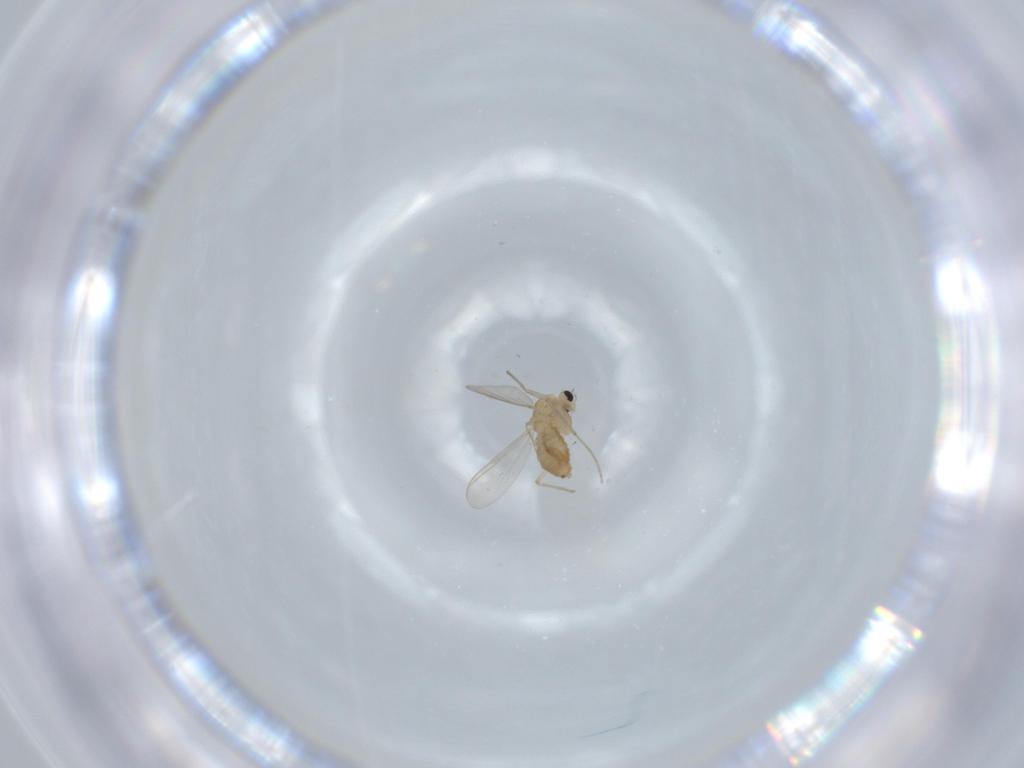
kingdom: Animalia
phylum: Arthropoda
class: Insecta
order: Diptera
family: Chironomidae
